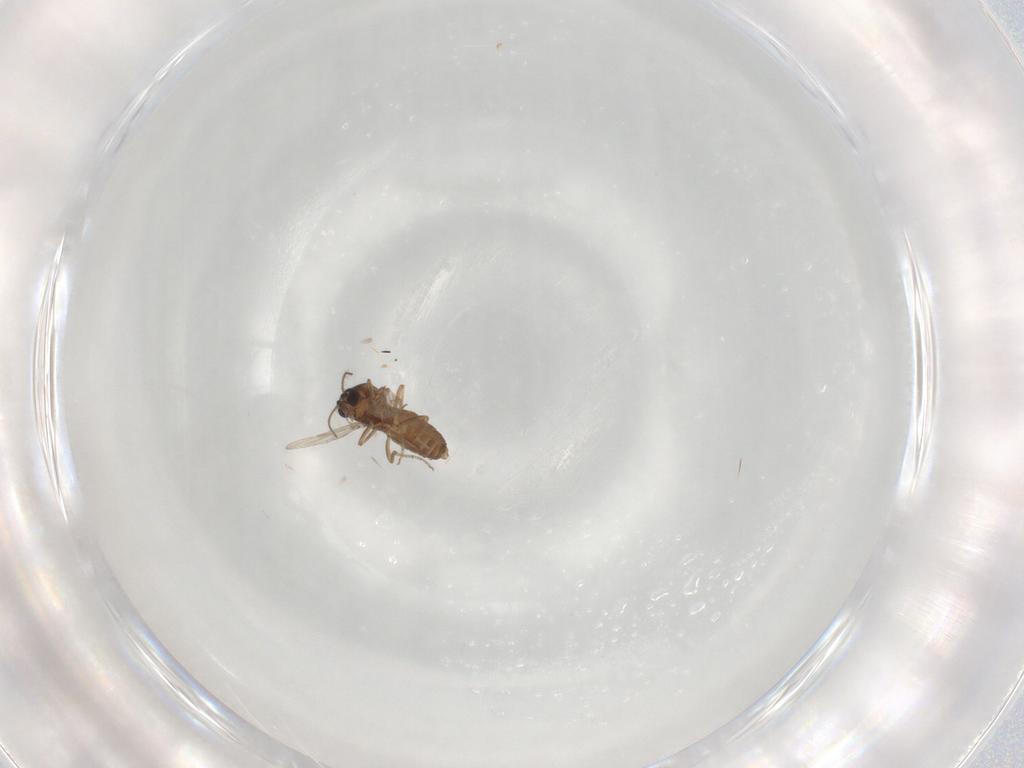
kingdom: Animalia
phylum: Arthropoda
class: Insecta
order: Diptera
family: Ceratopogonidae
